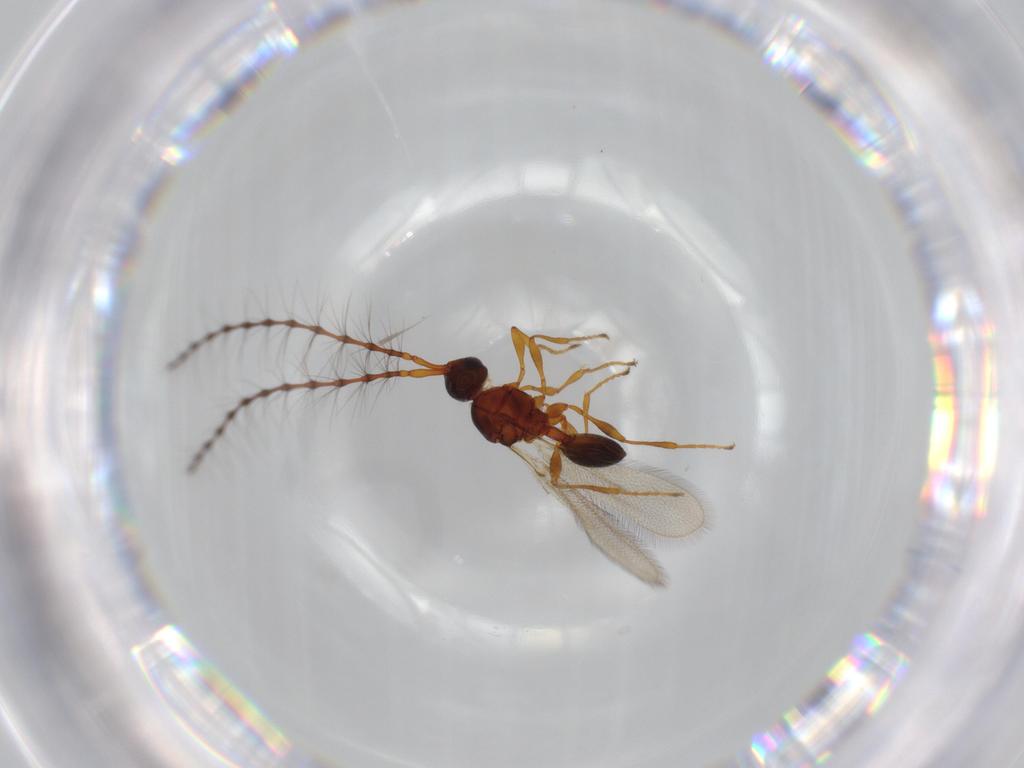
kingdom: Animalia
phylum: Arthropoda
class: Insecta
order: Hymenoptera
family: Diapriidae
